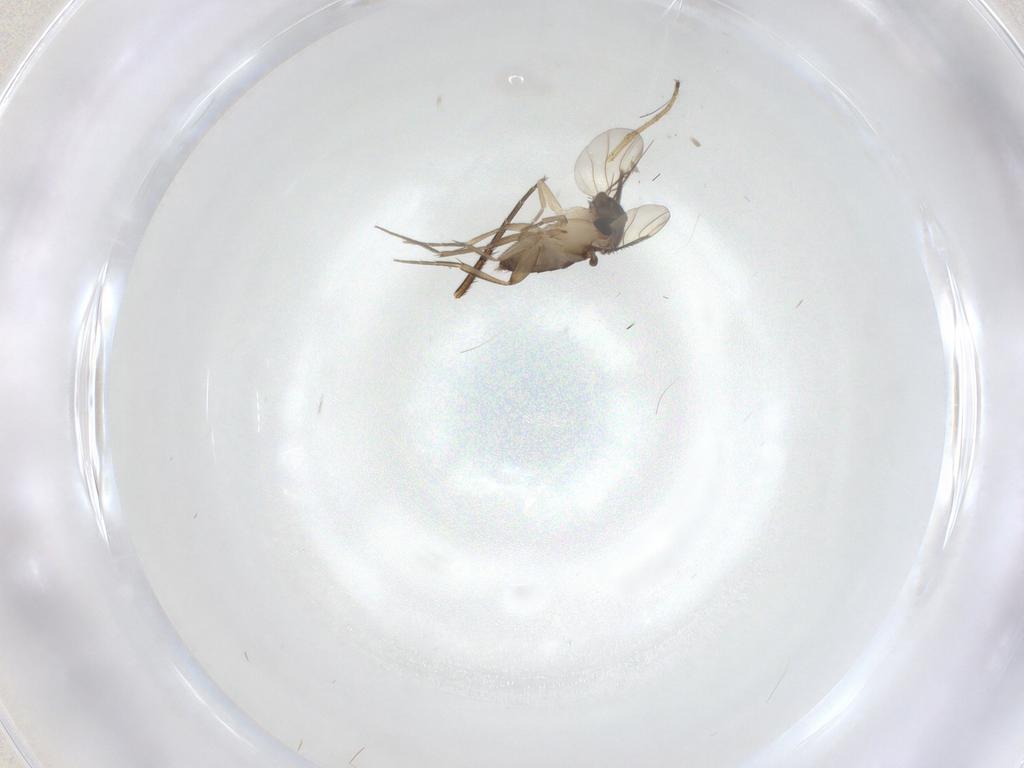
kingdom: Animalia
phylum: Arthropoda
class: Insecta
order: Diptera
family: Phoridae
